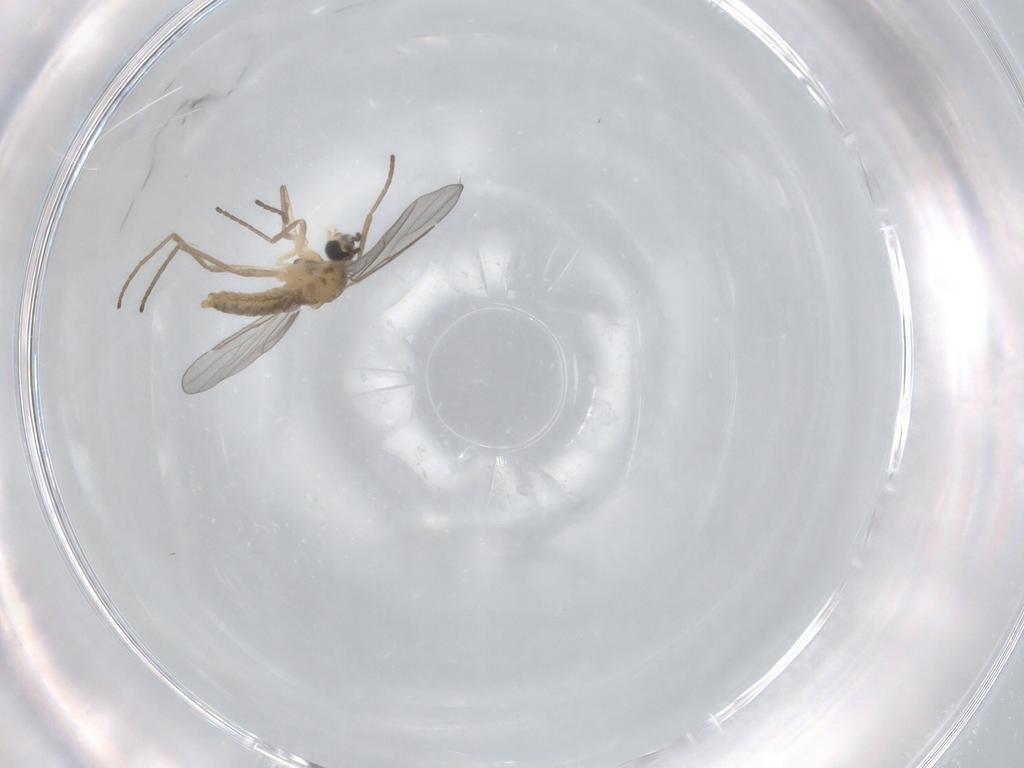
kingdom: Animalia
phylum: Arthropoda
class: Insecta
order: Diptera
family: Cecidomyiidae
